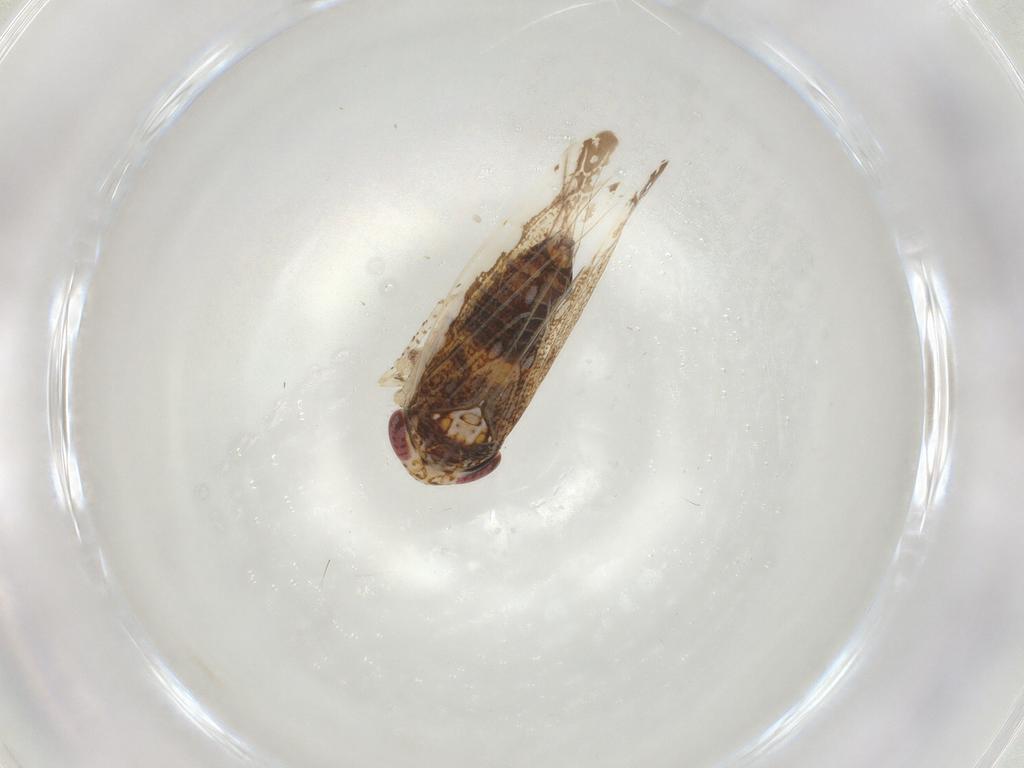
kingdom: Animalia
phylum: Arthropoda
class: Insecta
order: Hemiptera
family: Cicadellidae
